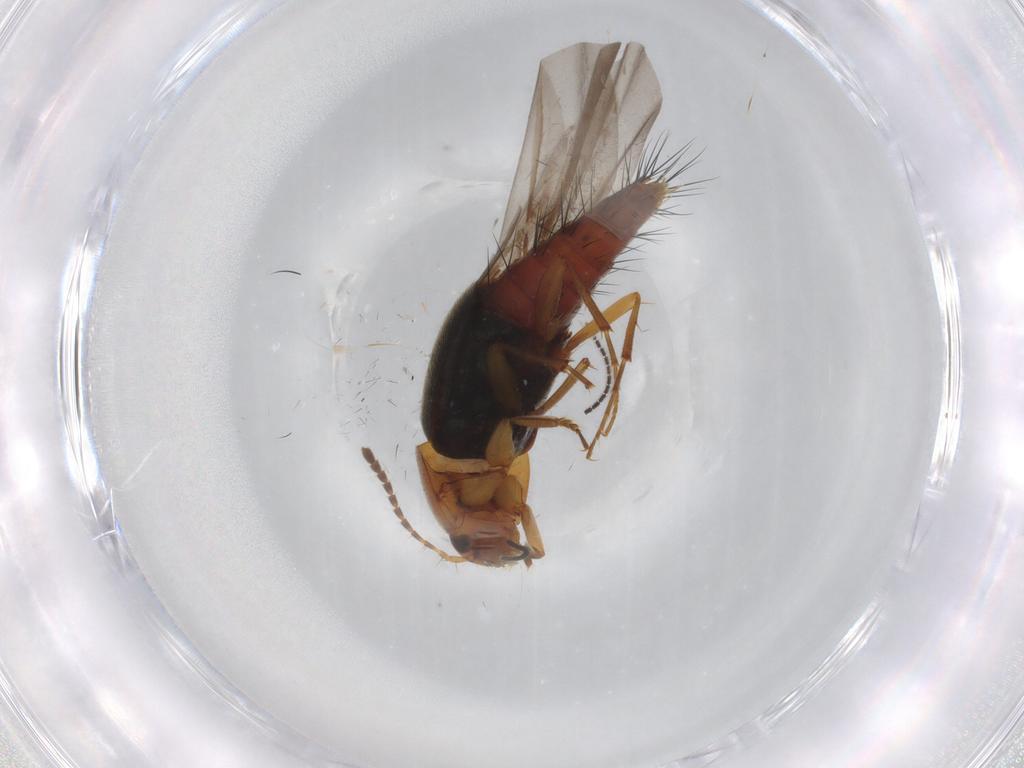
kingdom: Animalia
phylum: Arthropoda
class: Insecta
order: Coleoptera
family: Staphylinidae
